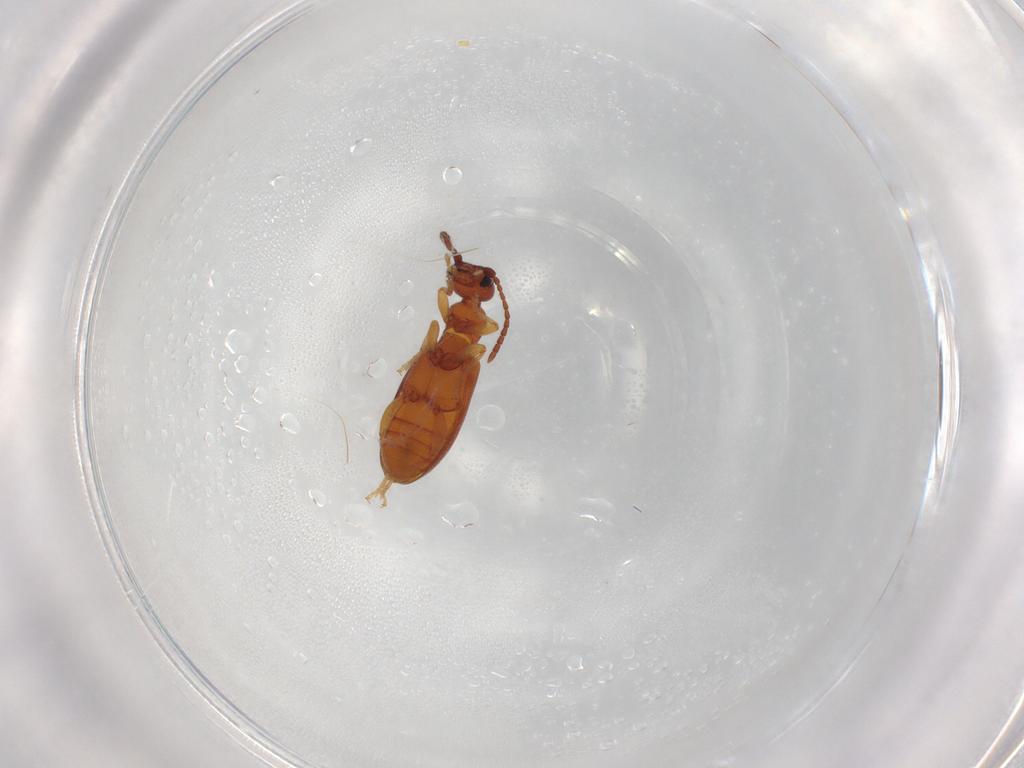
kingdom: Animalia
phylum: Arthropoda
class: Insecta
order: Coleoptera
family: Anthicidae
